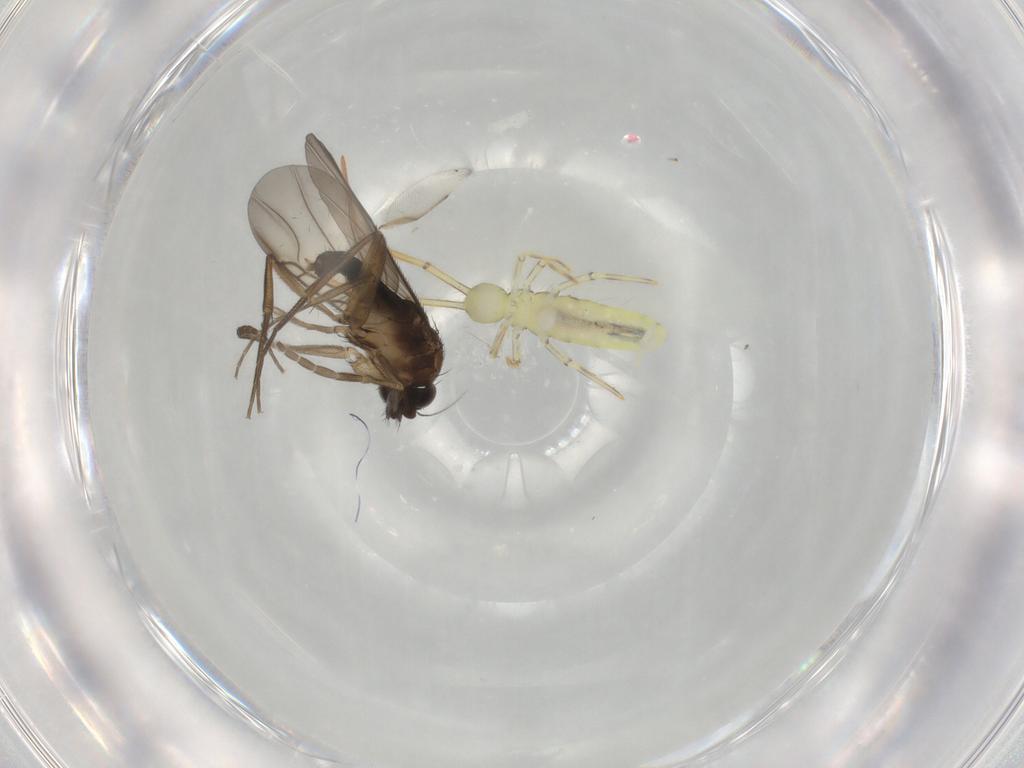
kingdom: Animalia
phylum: Arthropoda
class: Insecta
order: Diptera
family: Phoridae
